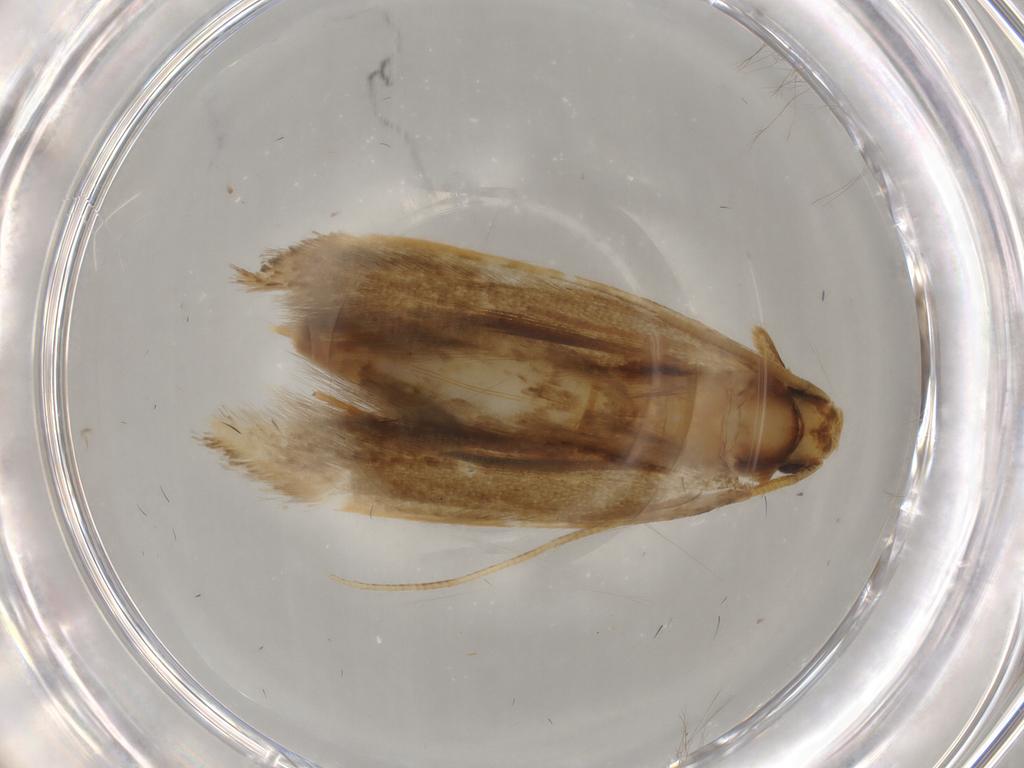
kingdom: Animalia
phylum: Arthropoda
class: Insecta
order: Lepidoptera
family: Tineidae
